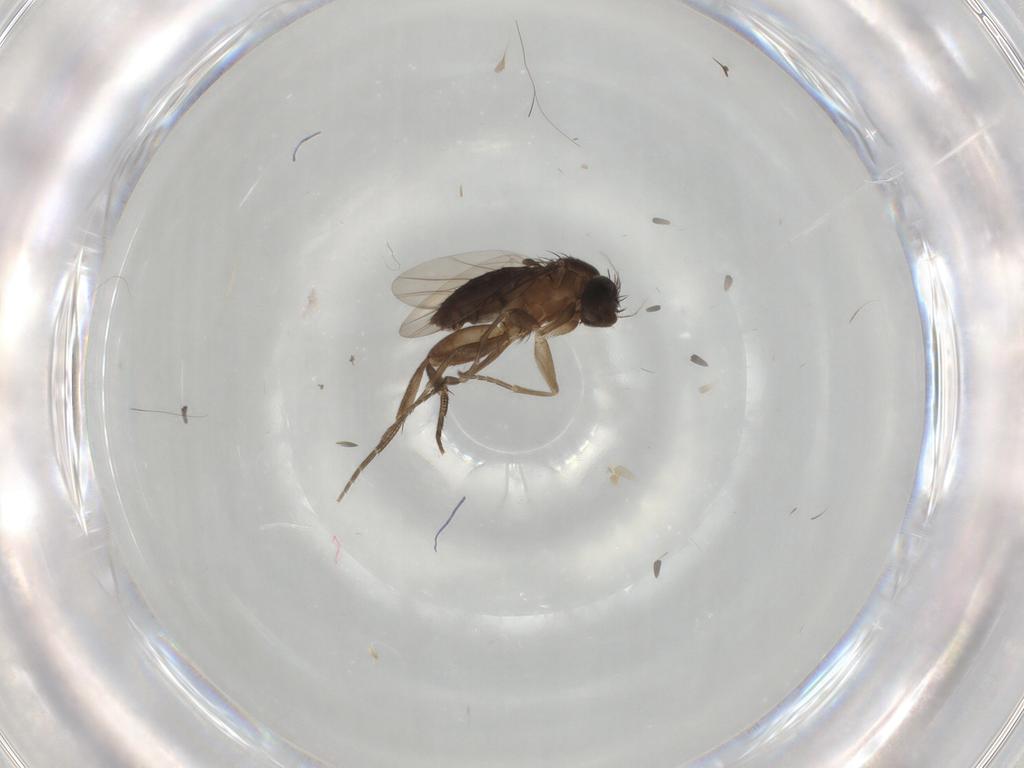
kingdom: Animalia
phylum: Arthropoda
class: Insecta
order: Diptera
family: Phoridae
